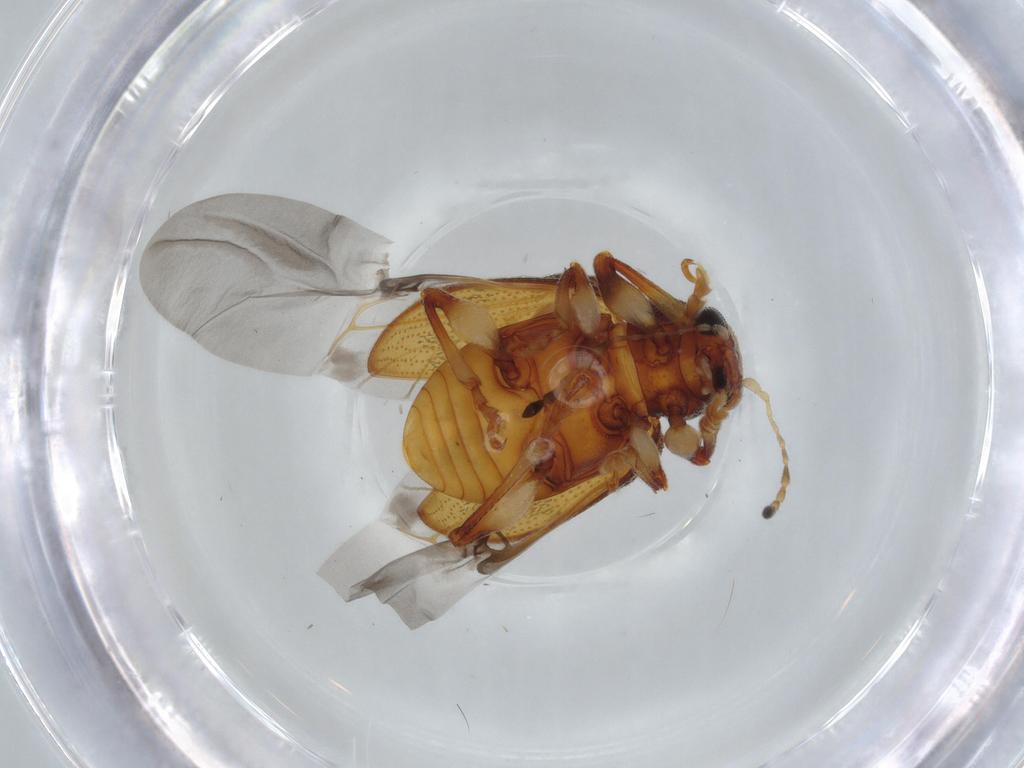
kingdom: Animalia
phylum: Arthropoda
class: Insecta
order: Coleoptera
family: Chrysomelidae
